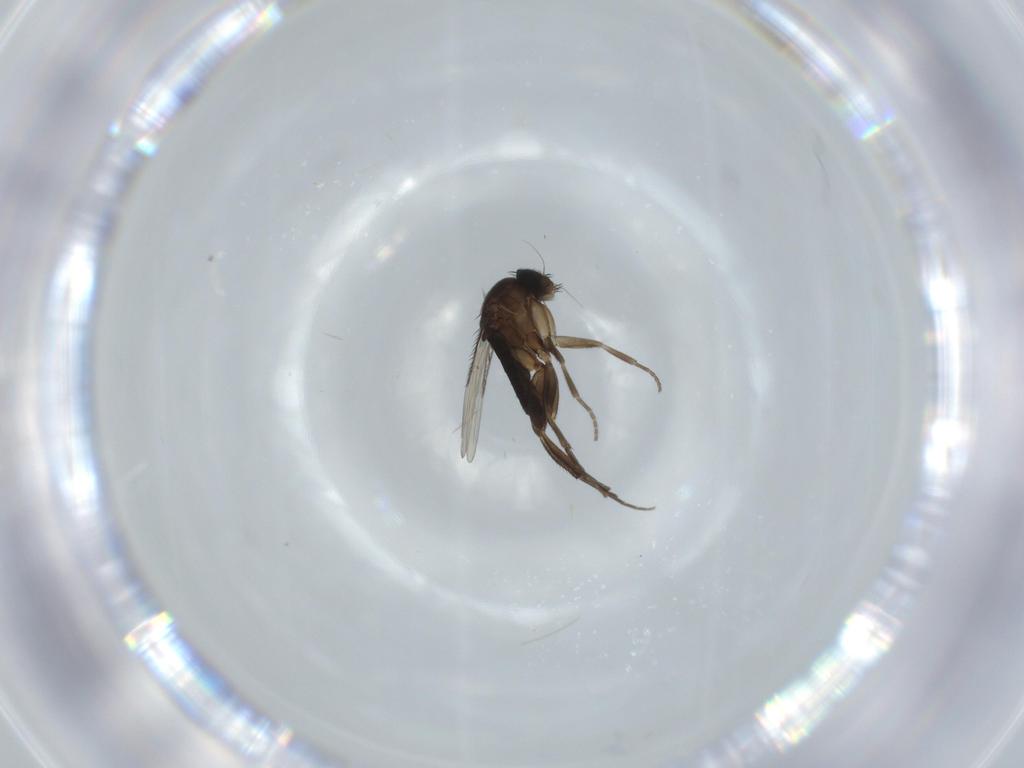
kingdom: Animalia
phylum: Arthropoda
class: Insecta
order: Diptera
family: Phoridae
